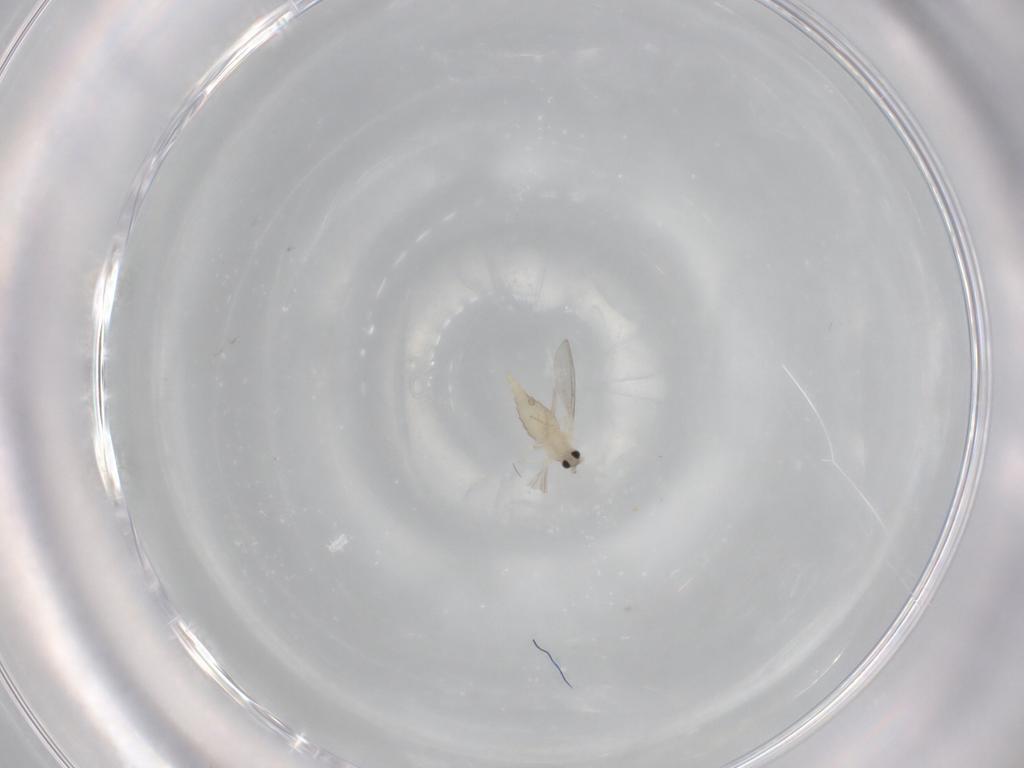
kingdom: Animalia
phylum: Arthropoda
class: Insecta
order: Diptera
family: Cecidomyiidae
